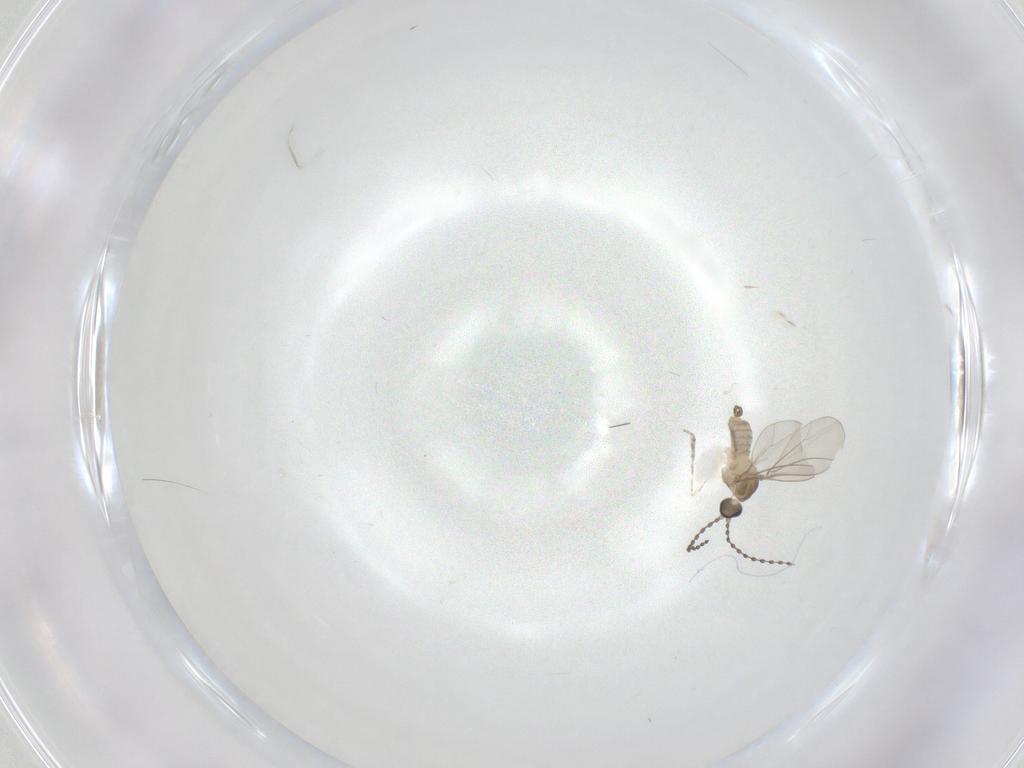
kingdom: Animalia
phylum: Arthropoda
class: Insecta
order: Diptera
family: Cecidomyiidae
